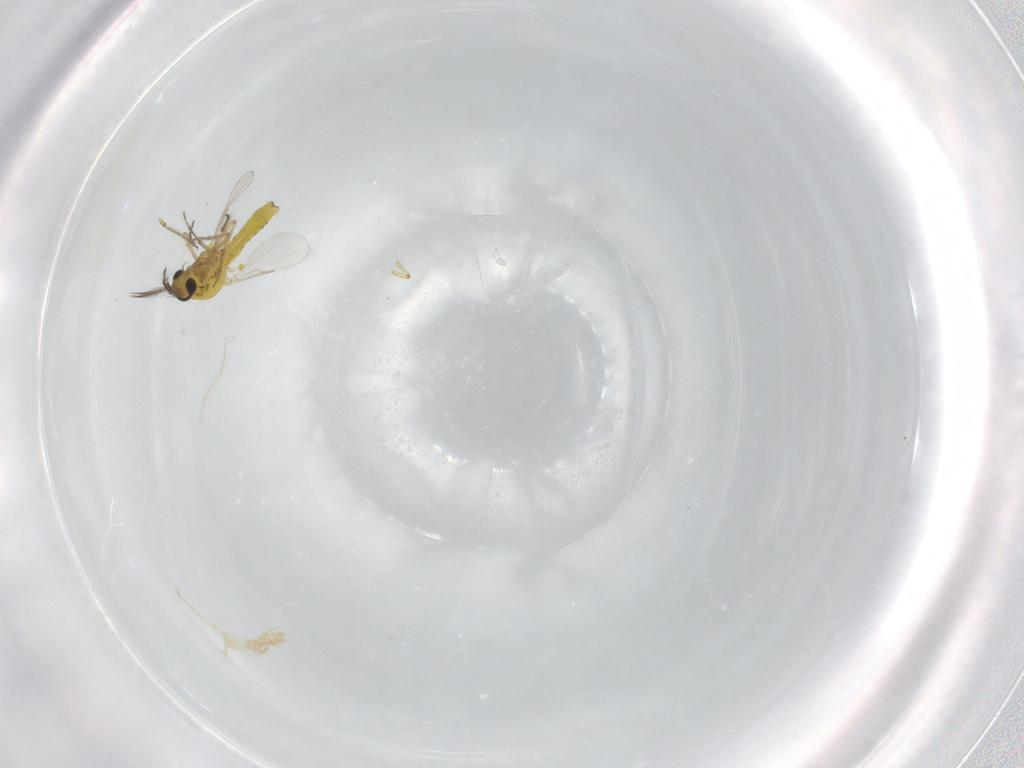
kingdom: Animalia
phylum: Arthropoda
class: Insecta
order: Diptera
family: Ceratopogonidae
